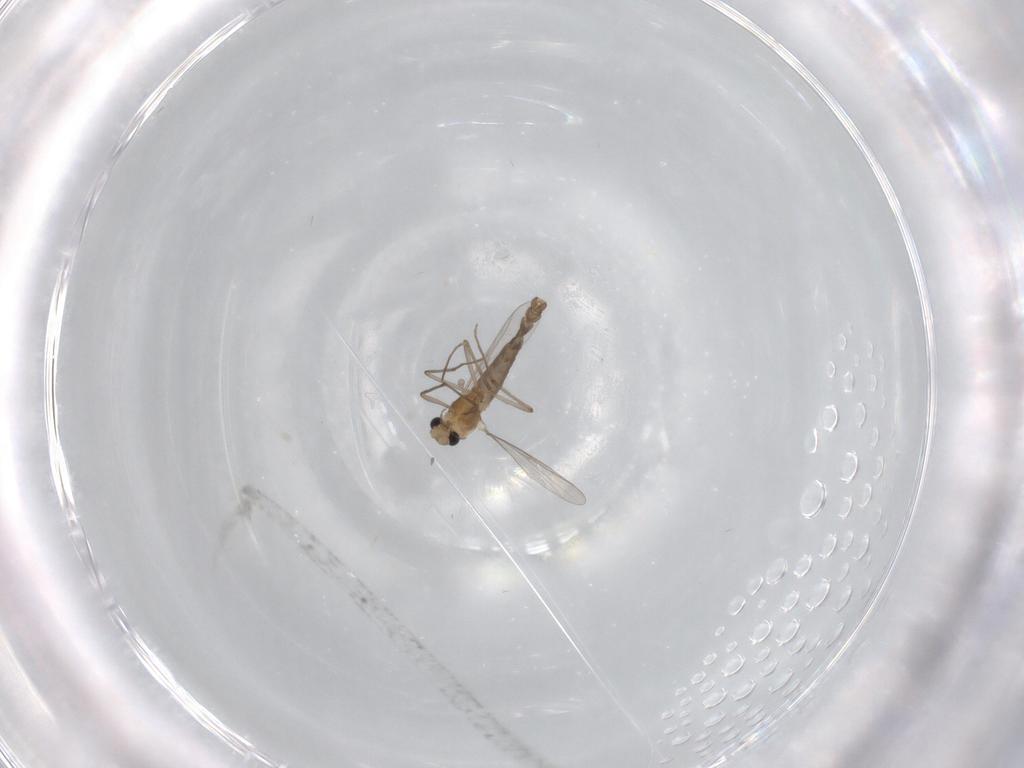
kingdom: Animalia
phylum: Arthropoda
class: Insecta
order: Diptera
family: Chironomidae
